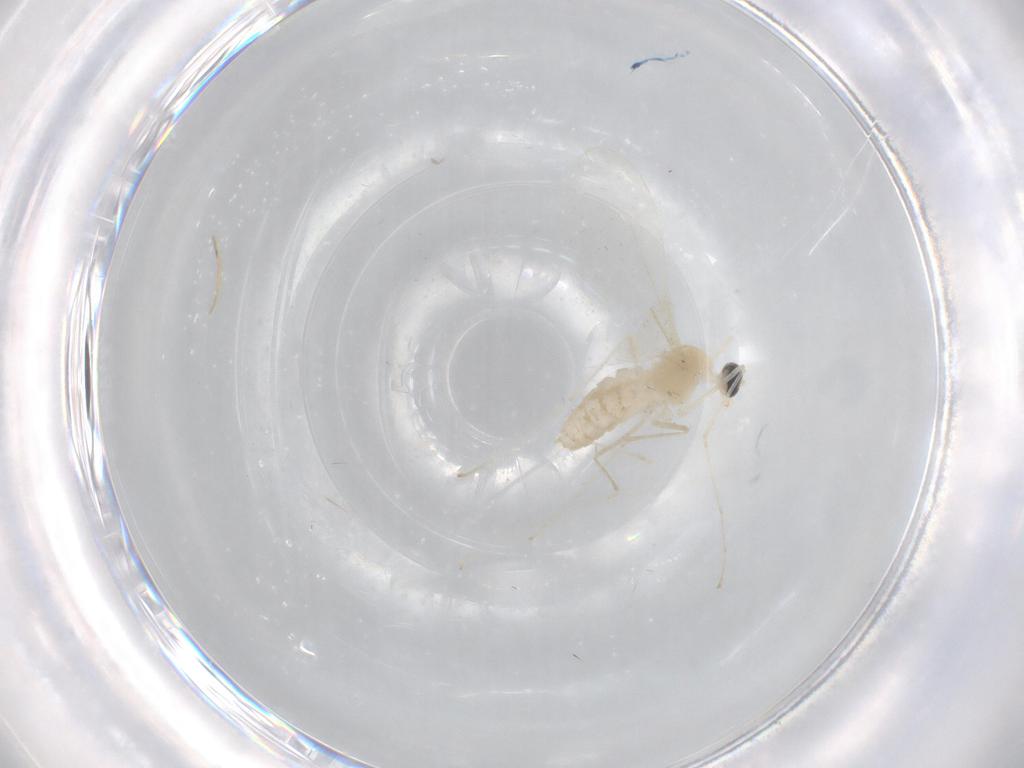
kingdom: Animalia
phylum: Arthropoda
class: Insecta
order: Diptera
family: Cecidomyiidae
